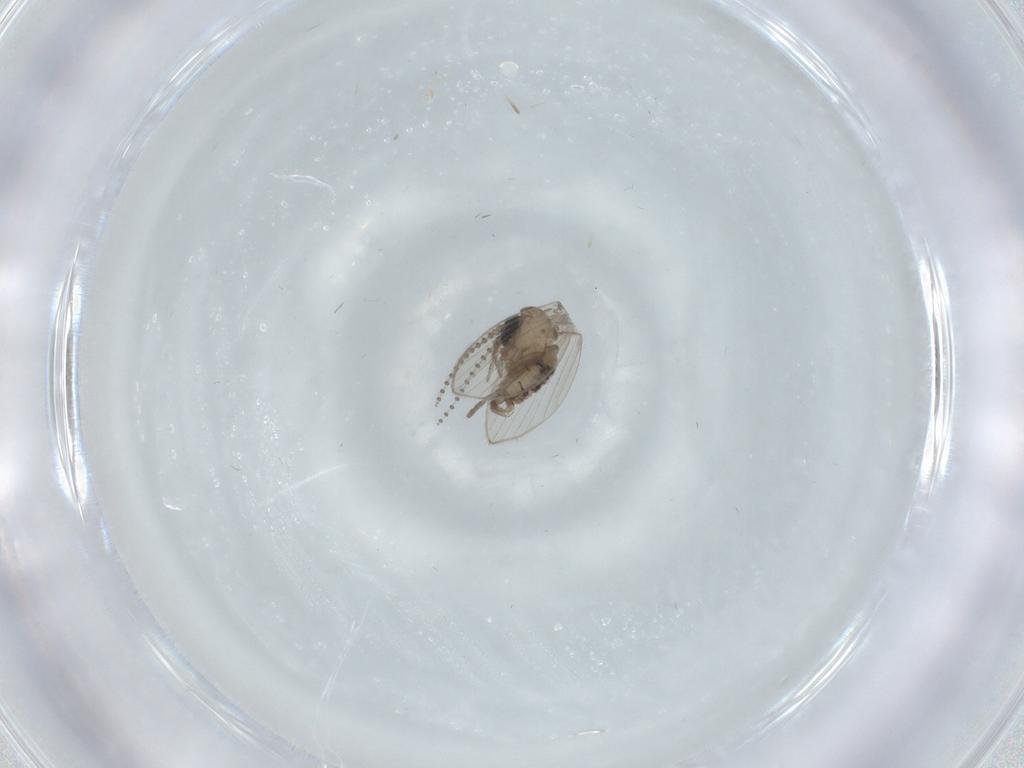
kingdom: Animalia
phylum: Arthropoda
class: Insecta
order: Diptera
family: Psychodidae
